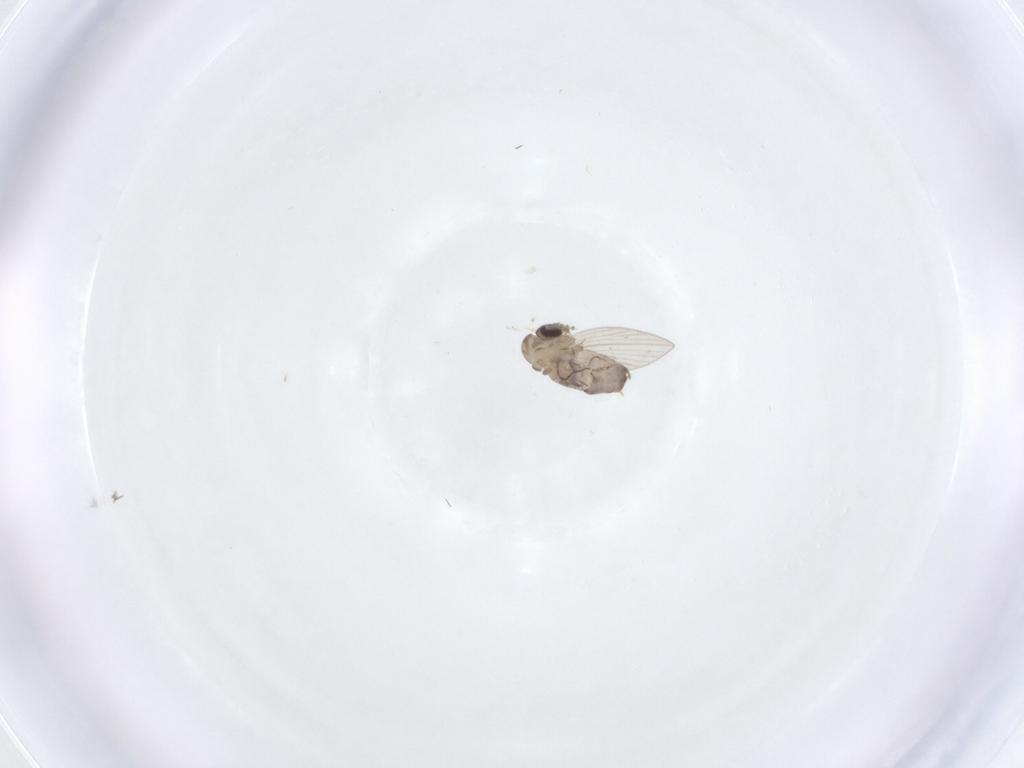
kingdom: Animalia
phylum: Arthropoda
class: Insecta
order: Diptera
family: Psychodidae
